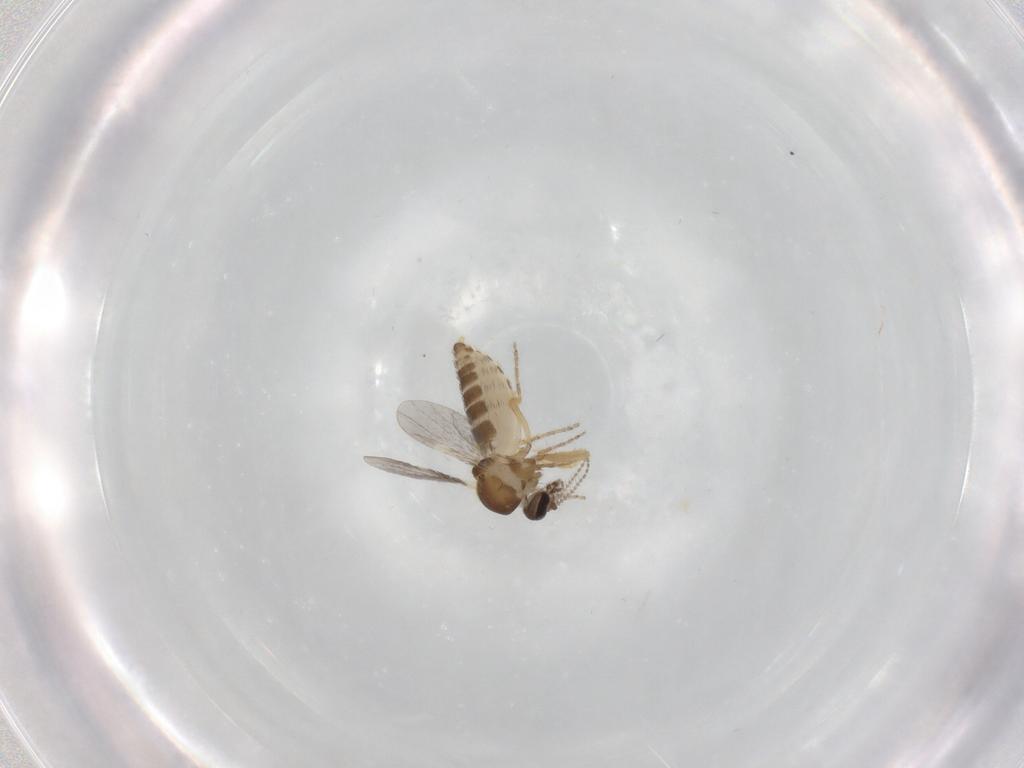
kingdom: Animalia
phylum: Arthropoda
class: Insecta
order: Diptera
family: Ceratopogonidae
